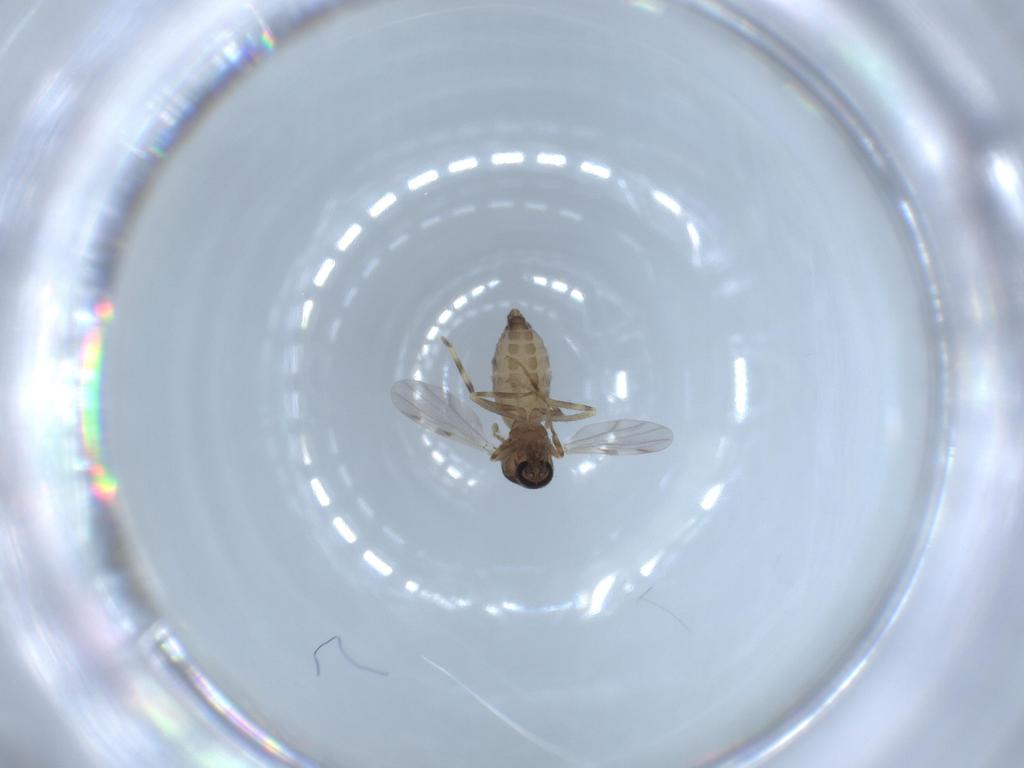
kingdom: Animalia
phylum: Arthropoda
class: Insecta
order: Diptera
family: Ceratopogonidae
